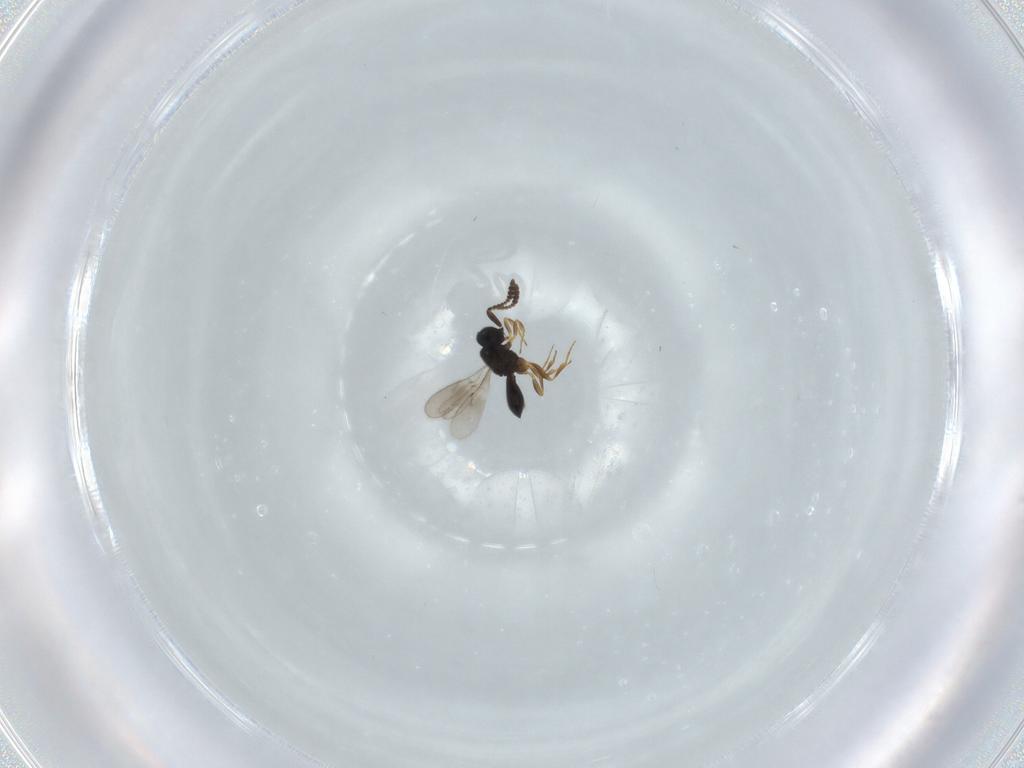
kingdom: Animalia
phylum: Arthropoda
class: Insecta
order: Hymenoptera
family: Scelionidae
